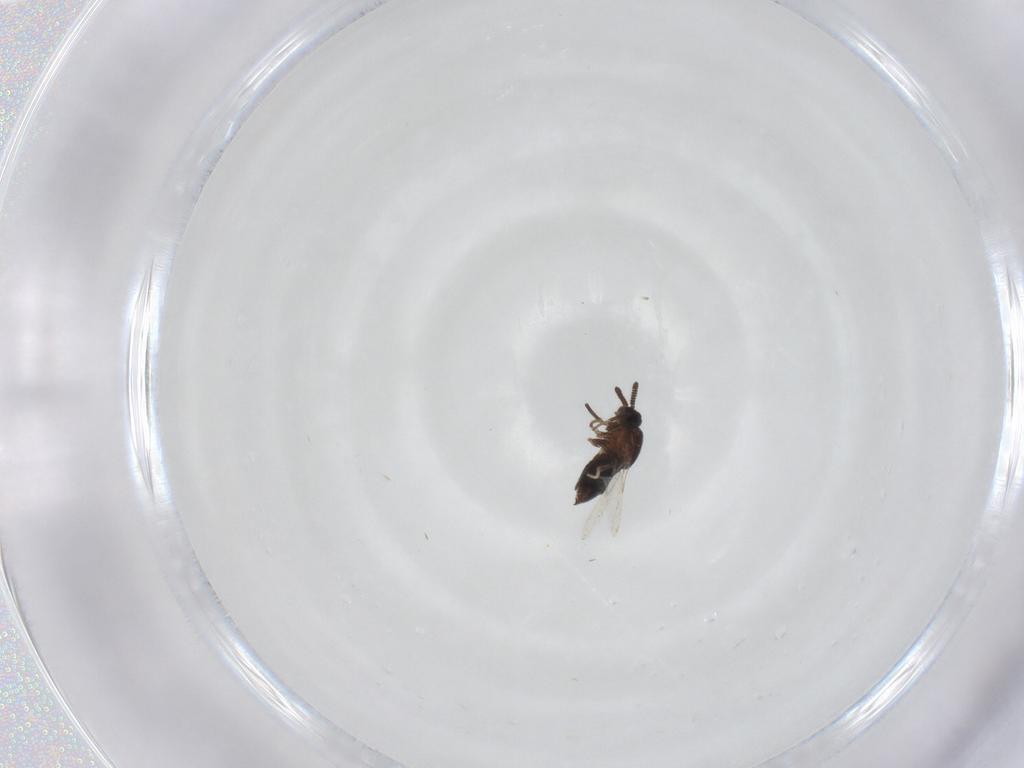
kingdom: Animalia
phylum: Arthropoda
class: Insecta
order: Diptera
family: Scatopsidae
